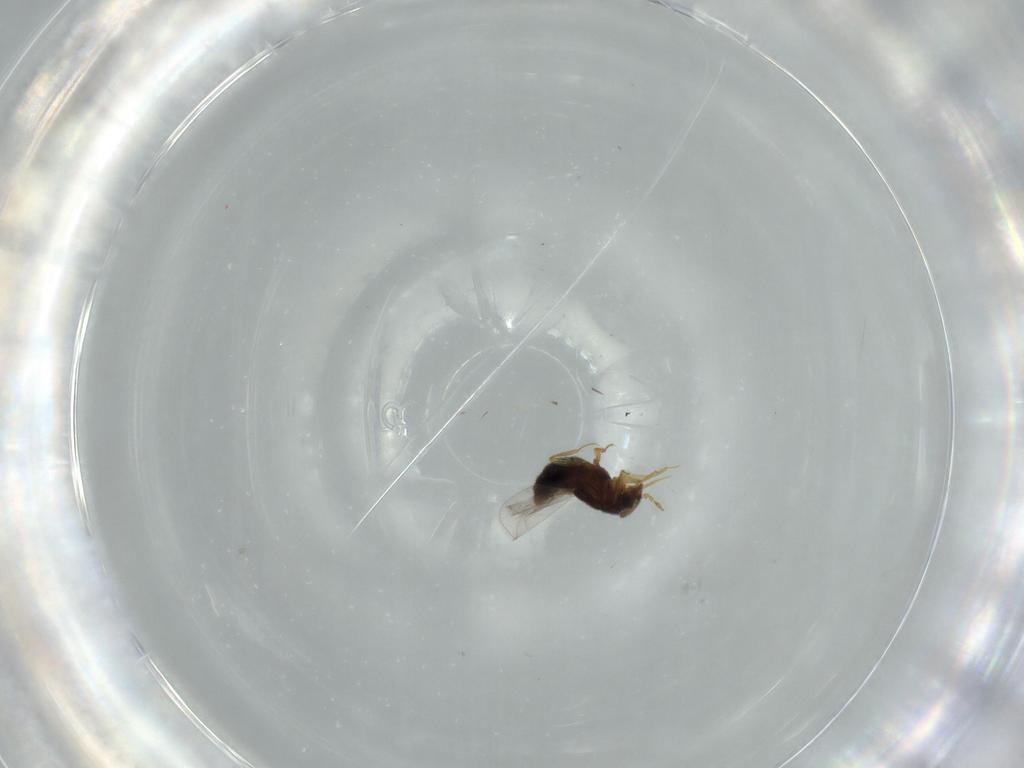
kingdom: Animalia
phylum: Arthropoda
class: Insecta
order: Coleoptera
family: Staphylinidae
